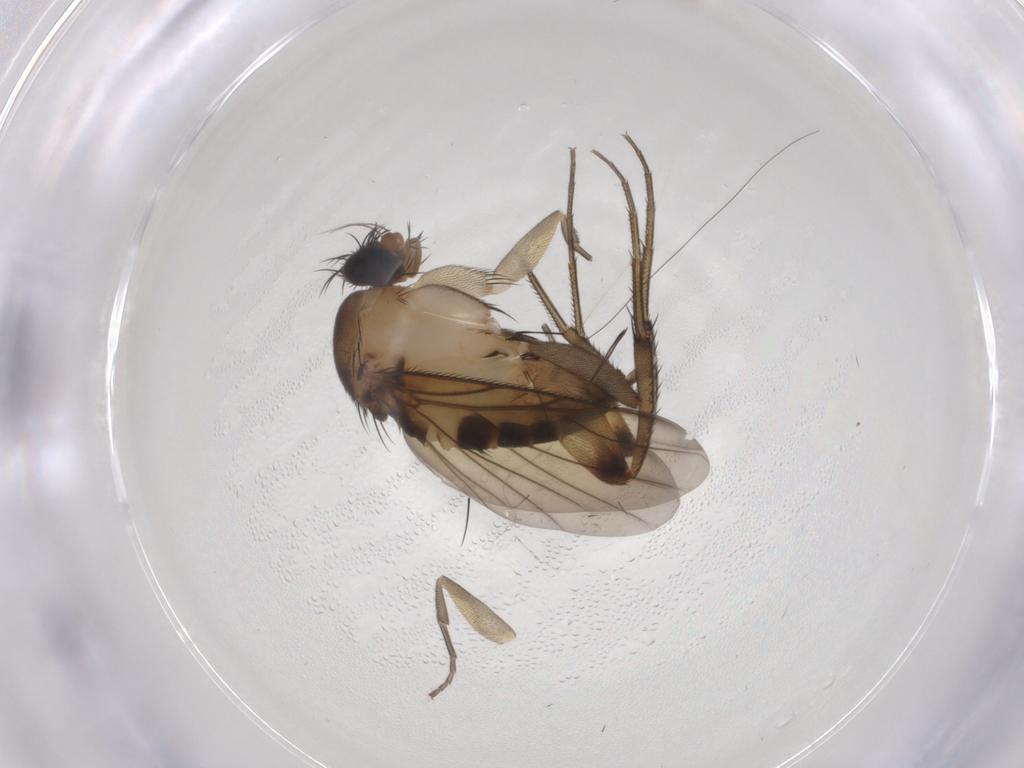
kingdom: Animalia
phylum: Arthropoda
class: Insecta
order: Diptera
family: Phoridae
